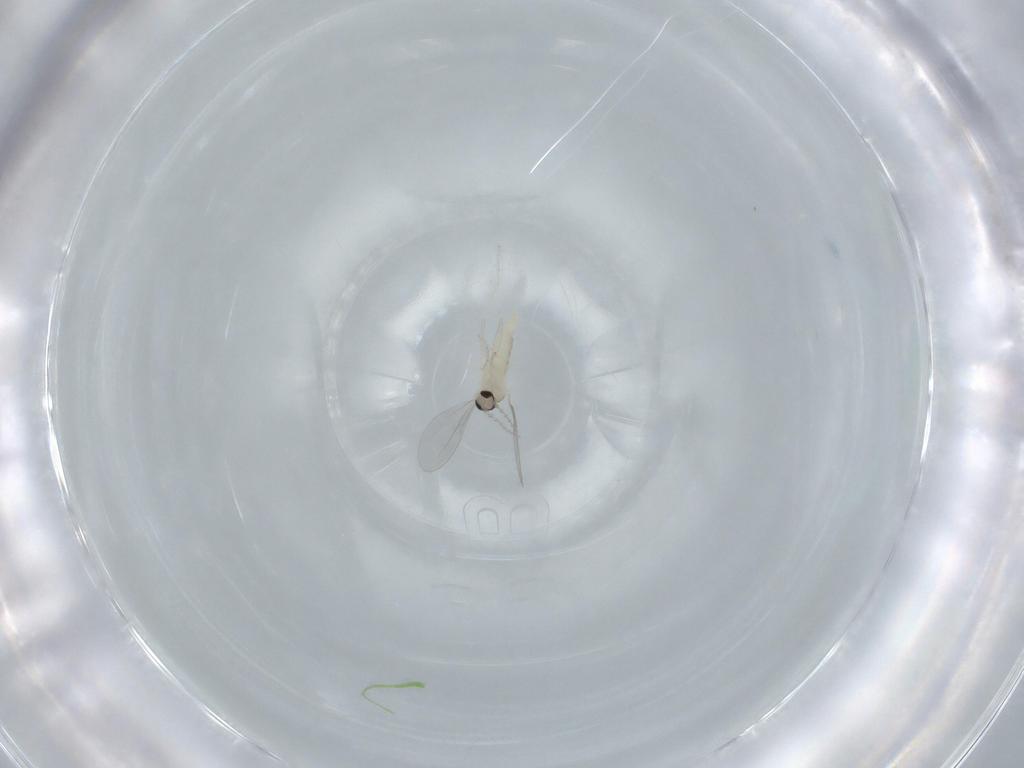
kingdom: Animalia
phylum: Arthropoda
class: Insecta
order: Diptera
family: Cecidomyiidae
